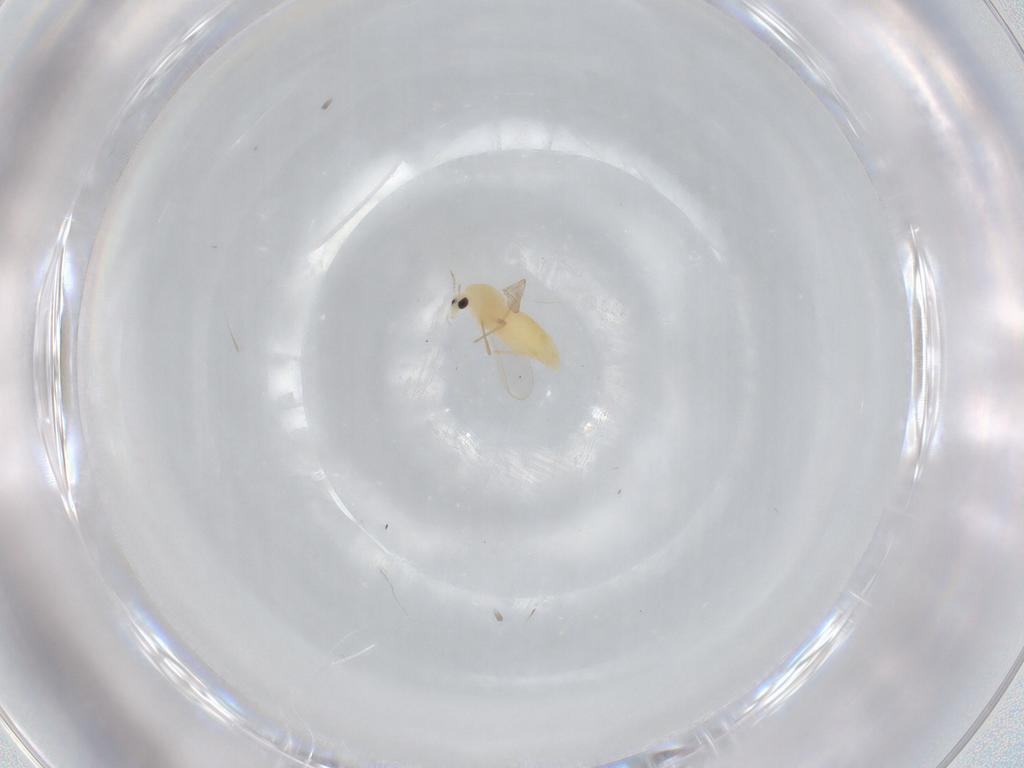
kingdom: Animalia
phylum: Arthropoda
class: Insecta
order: Diptera
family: Chironomidae
